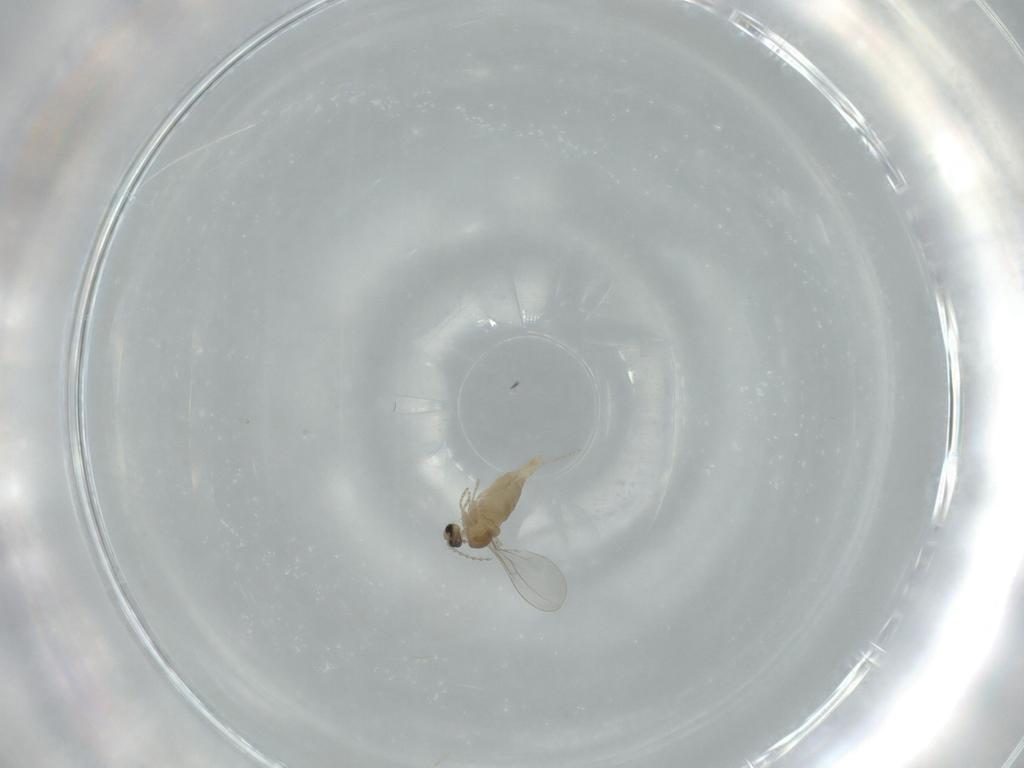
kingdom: Animalia
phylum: Arthropoda
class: Insecta
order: Diptera
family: Cecidomyiidae
